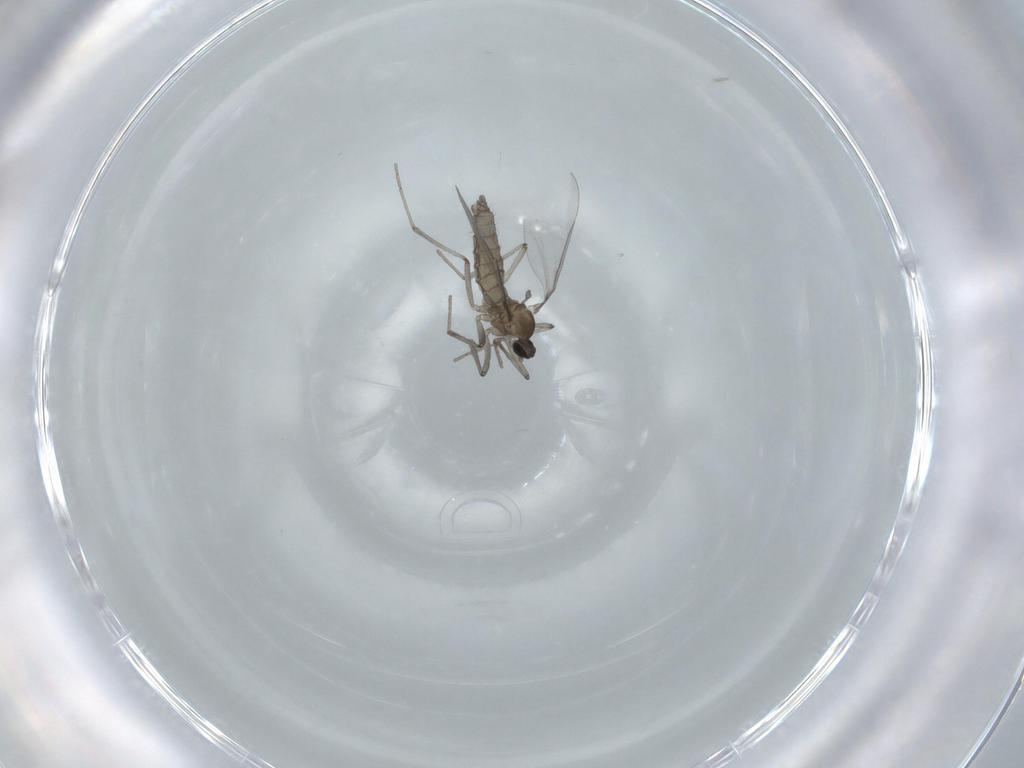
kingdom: Animalia
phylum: Arthropoda
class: Insecta
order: Diptera
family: Cecidomyiidae
